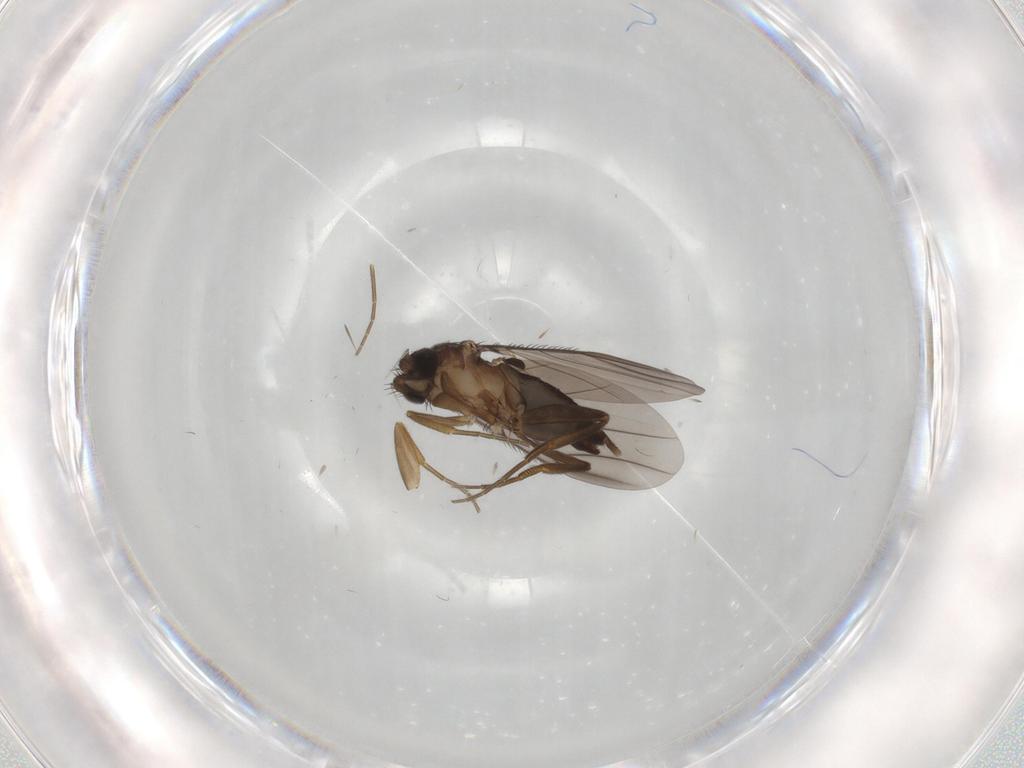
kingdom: Animalia
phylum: Arthropoda
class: Insecta
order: Diptera
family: Phoridae
